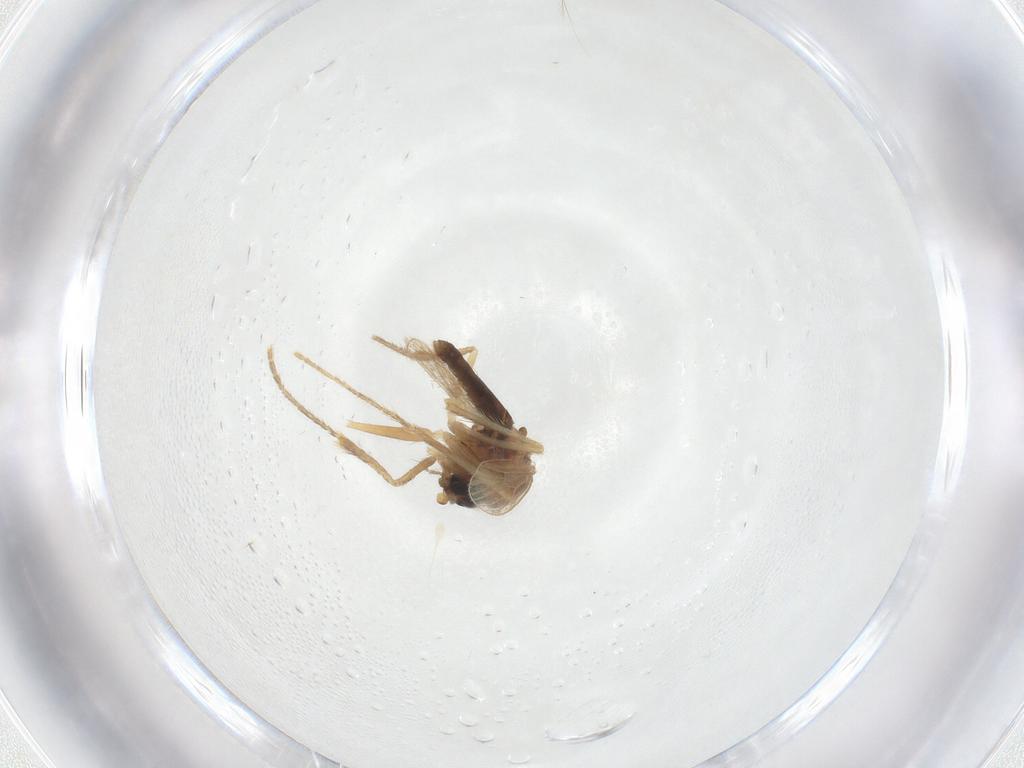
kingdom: Animalia
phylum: Arthropoda
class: Insecta
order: Diptera
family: Corethrellidae
